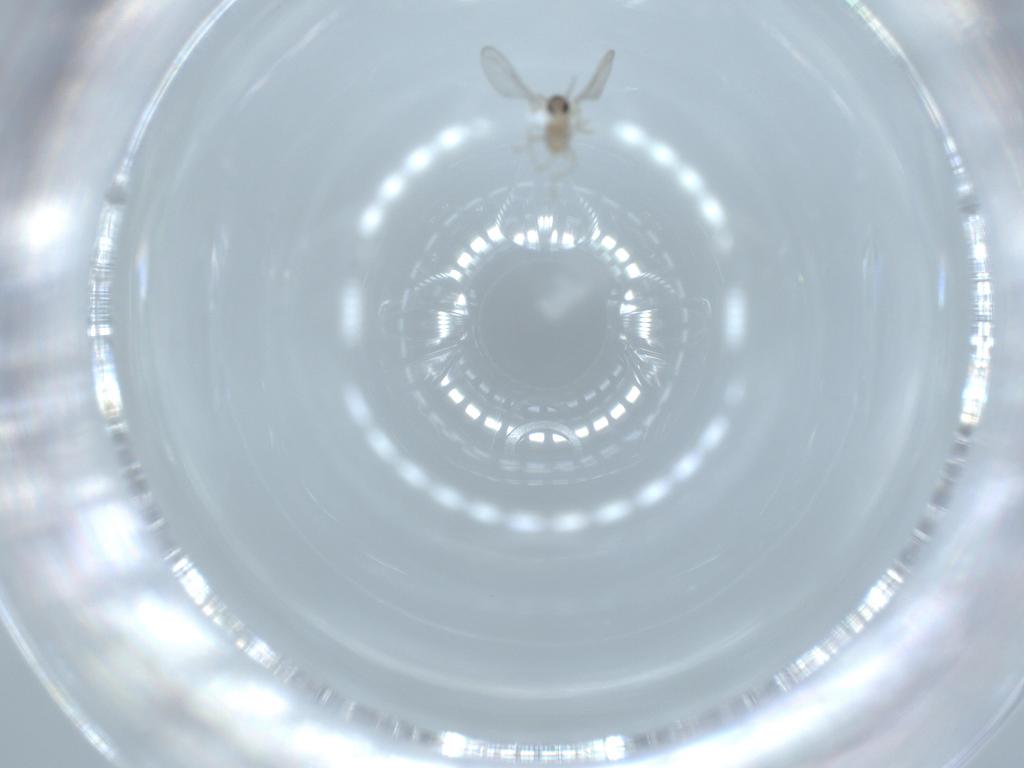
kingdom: Animalia
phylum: Arthropoda
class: Insecta
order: Diptera
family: Cecidomyiidae
